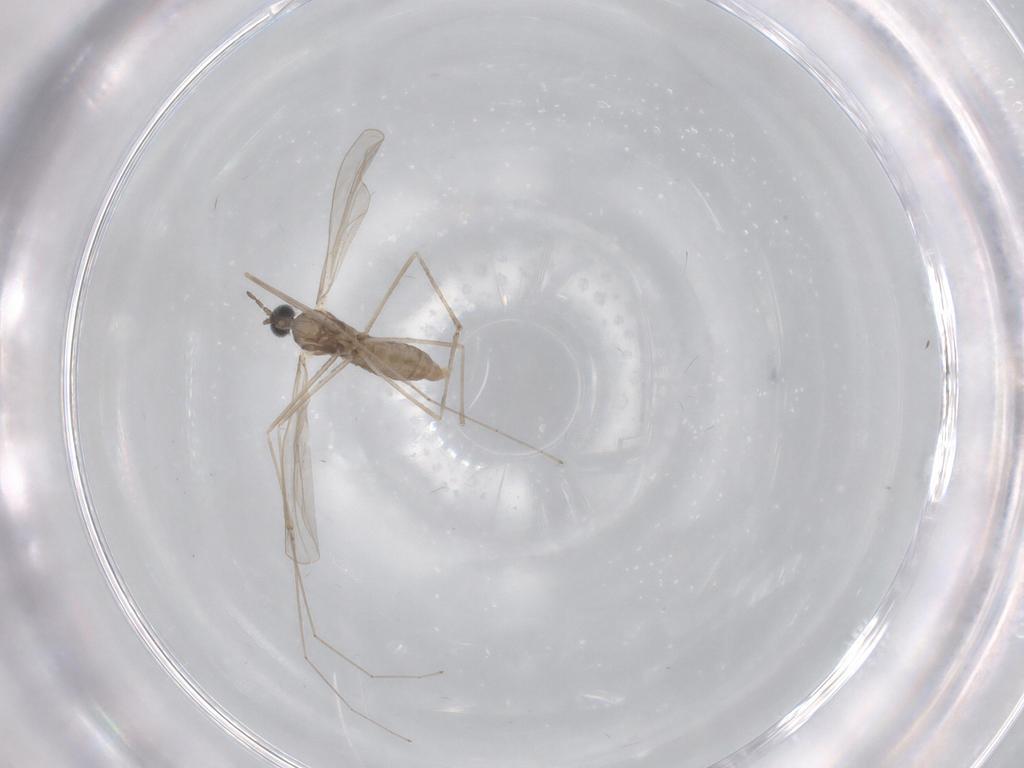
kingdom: Animalia
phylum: Arthropoda
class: Insecta
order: Diptera
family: Cecidomyiidae
